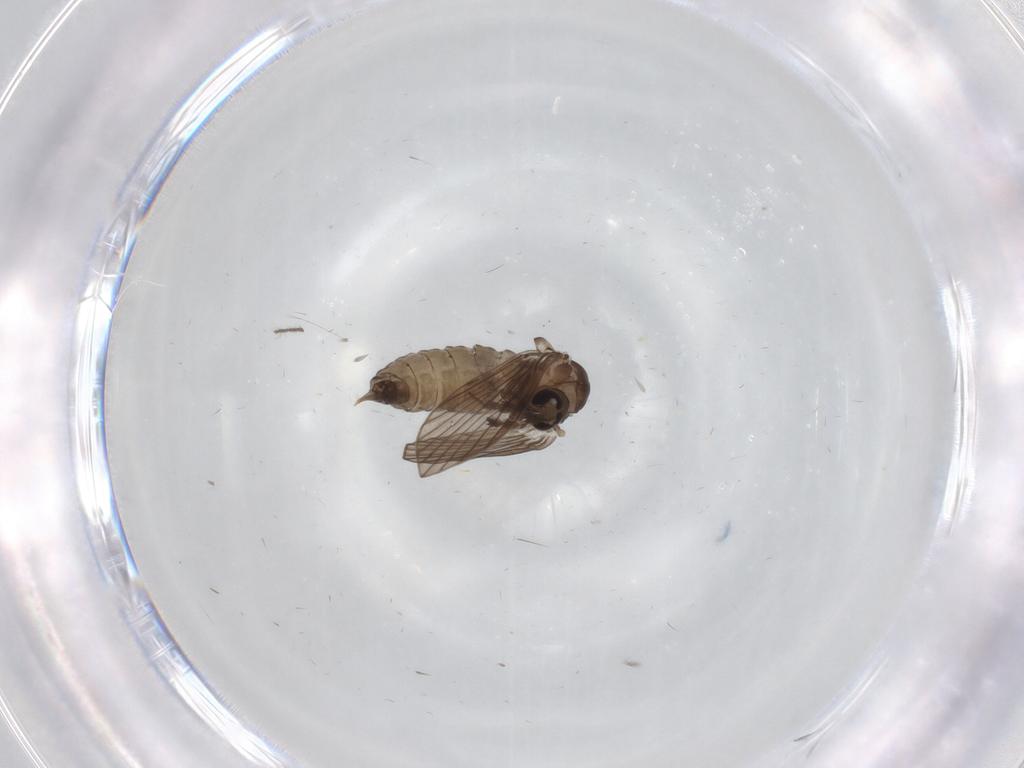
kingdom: Animalia
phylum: Arthropoda
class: Insecta
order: Diptera
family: Psychodidae
